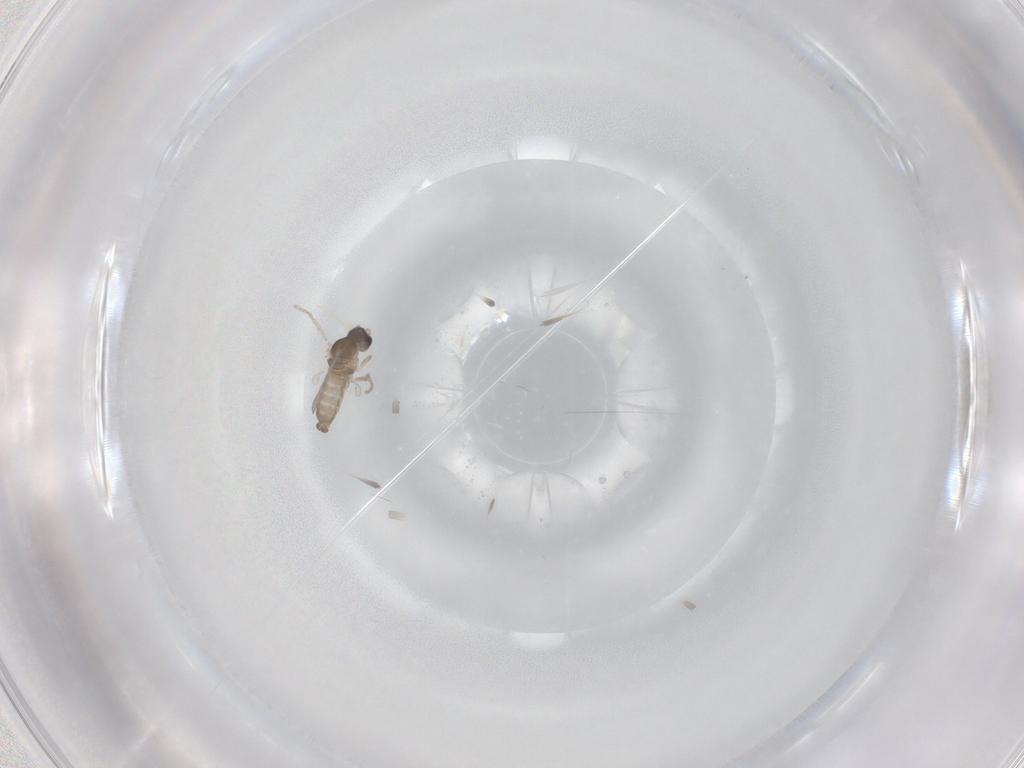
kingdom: Animalia
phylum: Arthropoda
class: Insecta
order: Diptera
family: Cecidomyiidae
